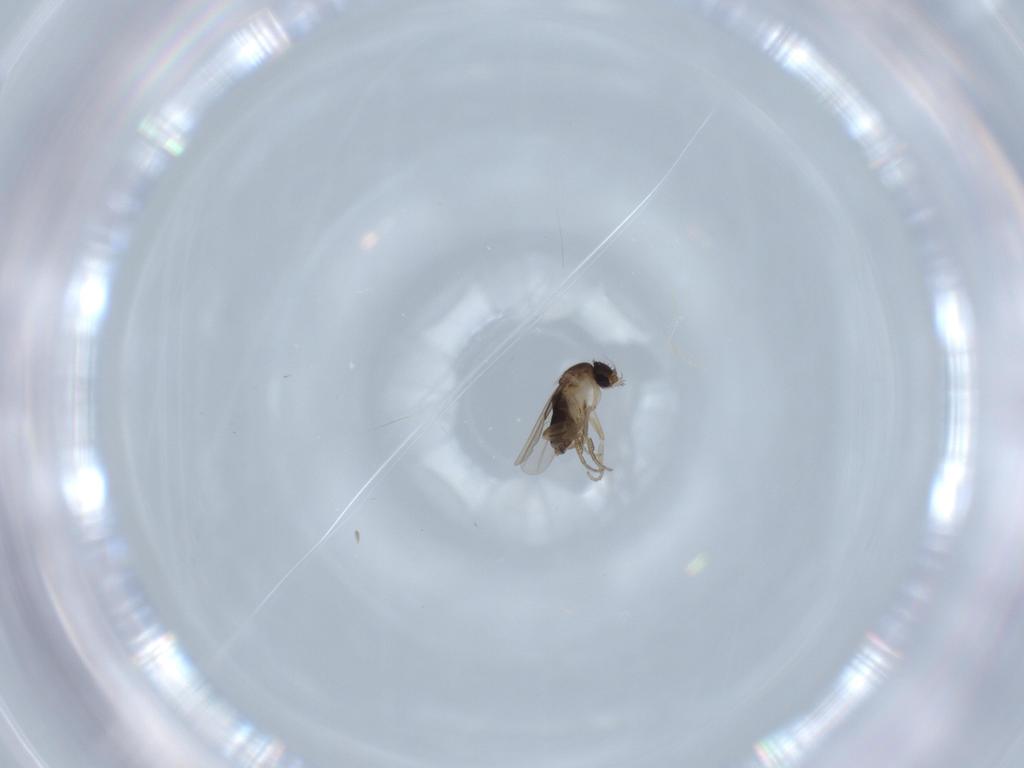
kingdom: Animalia
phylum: Arthropoda
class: Insecta
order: Diptera
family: Phoridae
